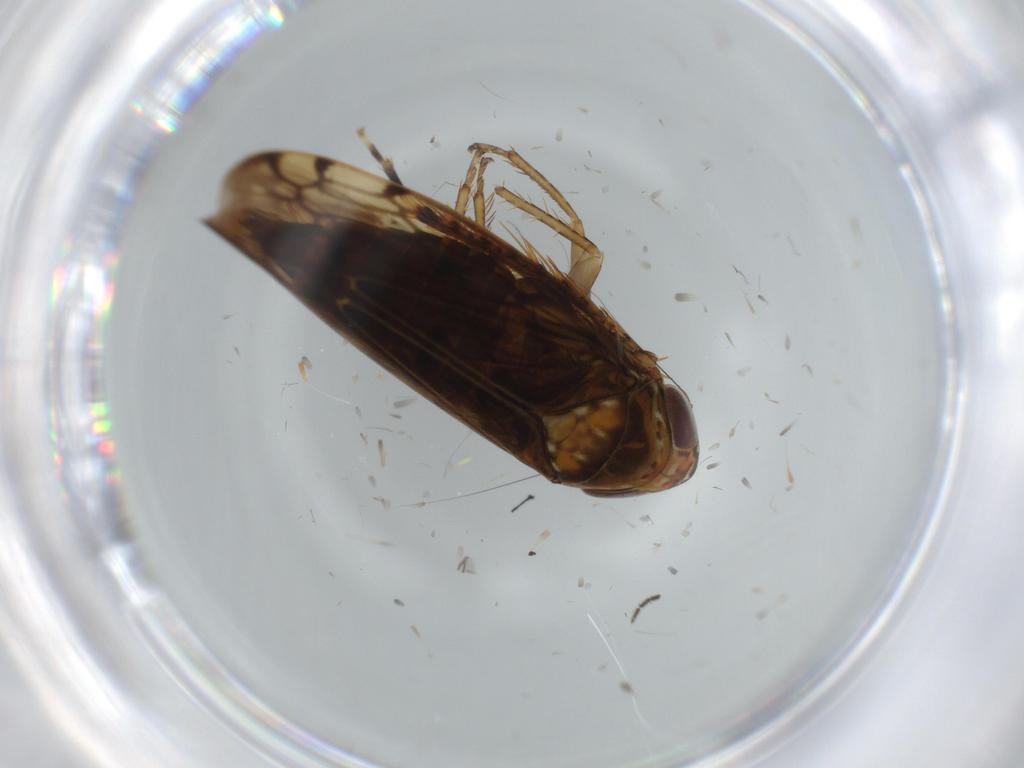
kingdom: Animalia
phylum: Arthropoda
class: Insecta
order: Hemiptera
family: Cicadellidae
